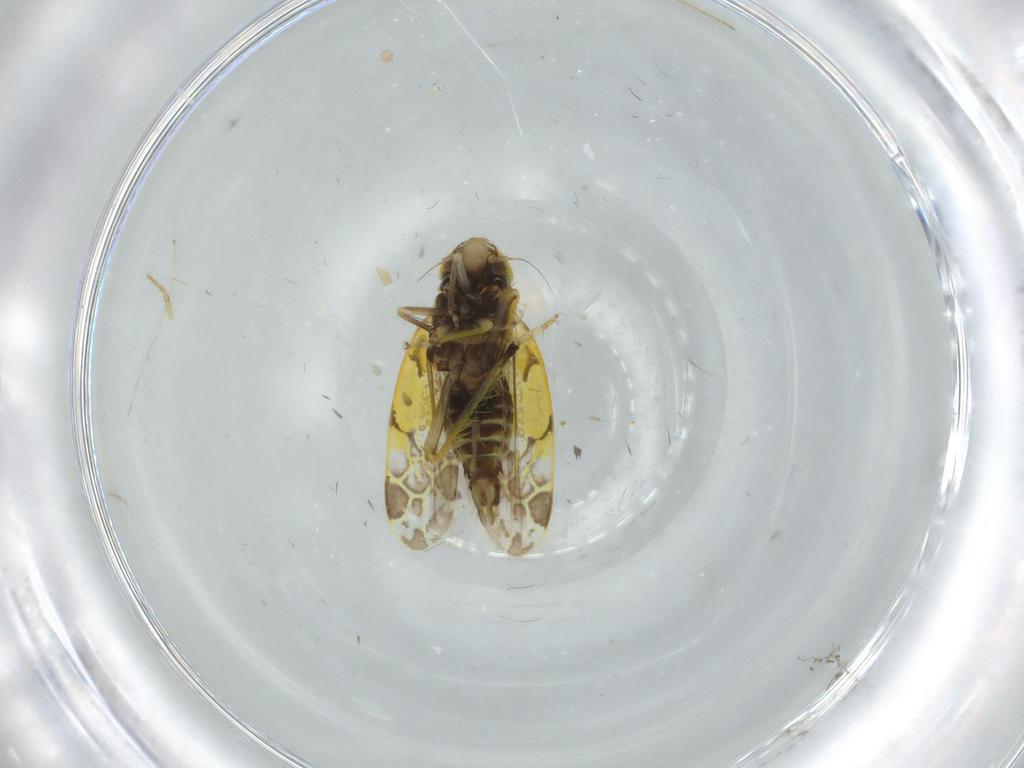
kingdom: Animalia
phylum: Arthropoda
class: Insecta
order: Hemiptera
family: Cicadellidae
